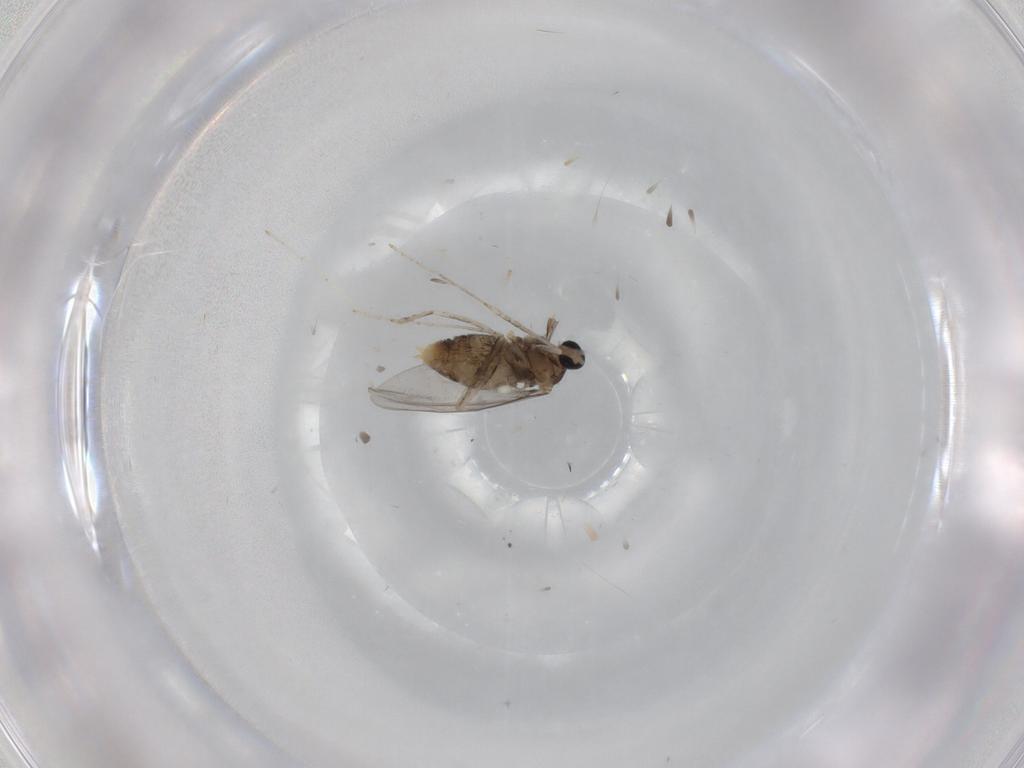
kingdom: Animalia
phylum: Arthropoda
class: Insecta
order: Diptera
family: Cecidomyiidae
